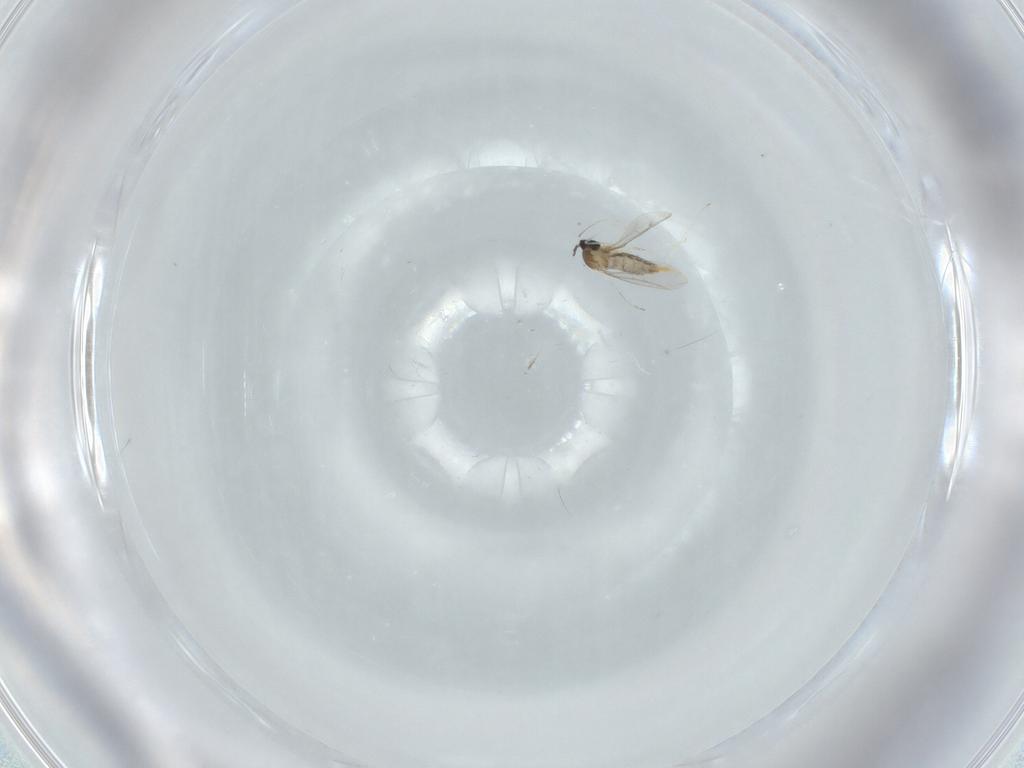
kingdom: Animalia
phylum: Arthropoda
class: Insecta
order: Diptera
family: Cecidomyiidae
